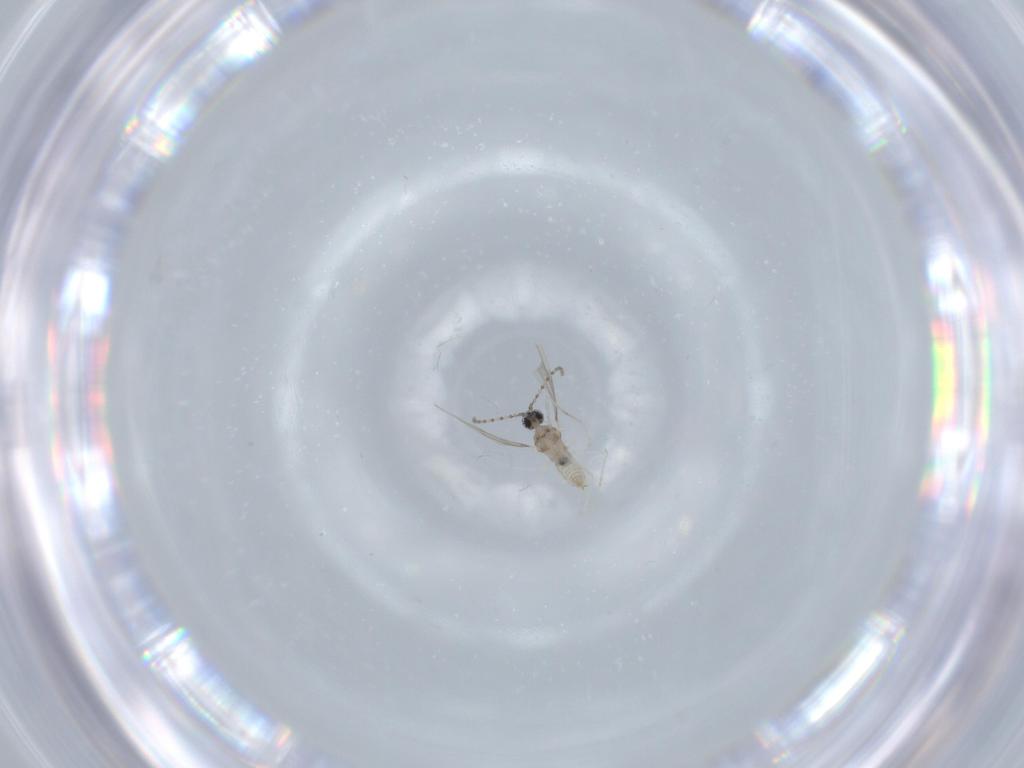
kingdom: Animalia
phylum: Arthropoda
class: Insecta
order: Diptera
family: Cecidomyiidae
